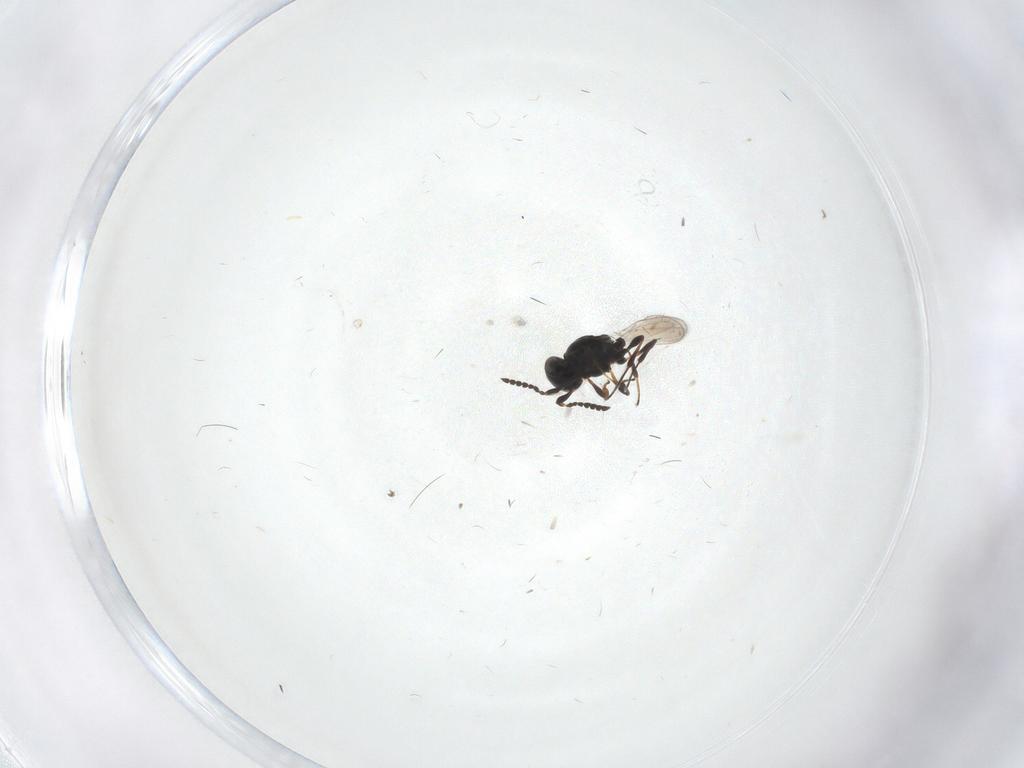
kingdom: Animalia
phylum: Arthropoda
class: Insecta
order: Hymenoptera
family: Platygastridae
